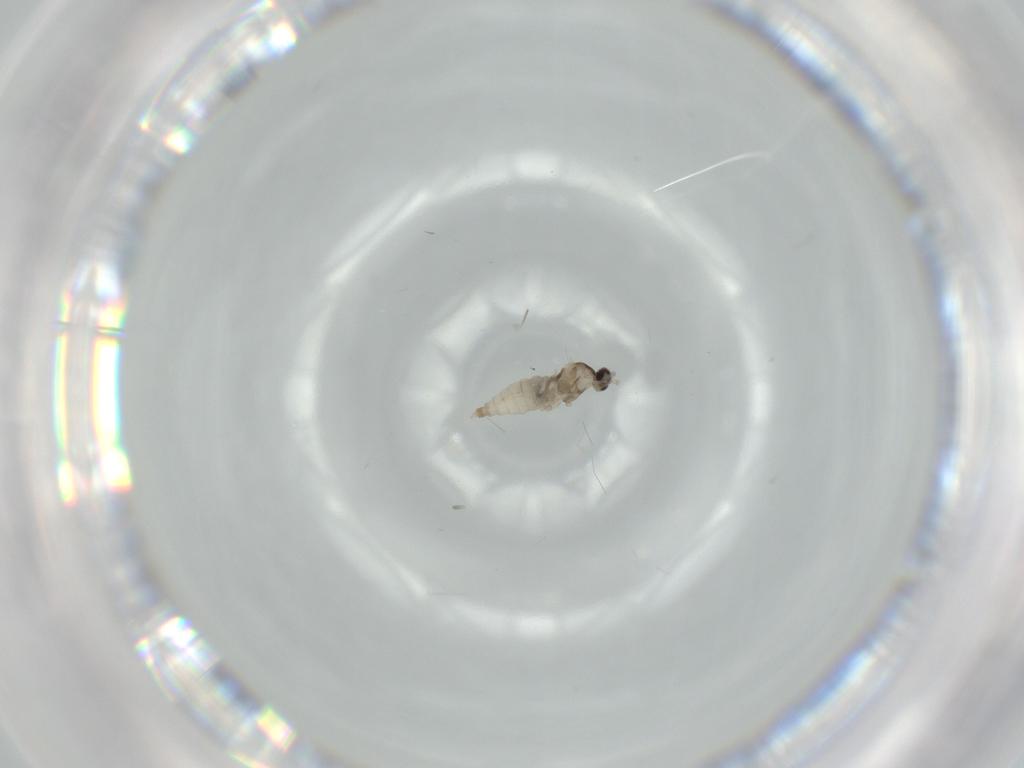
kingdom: Animalia
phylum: Arthropoda
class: Insecta
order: Diptera
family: Cecidomyiidae
